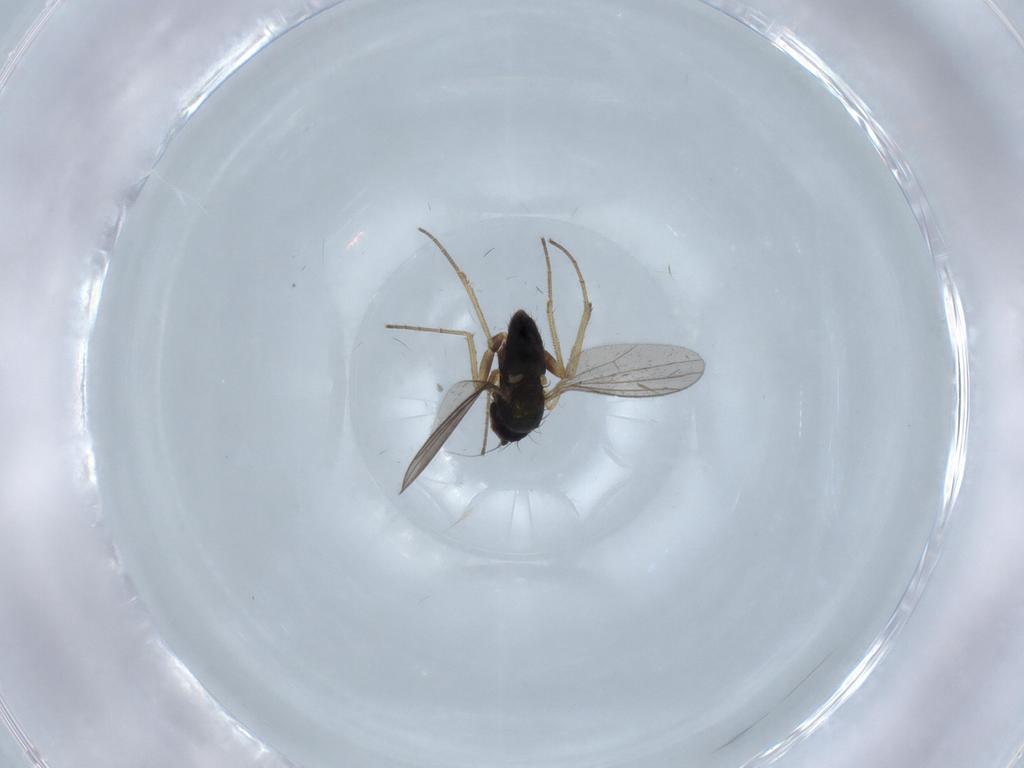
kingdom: Animalia
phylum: Arthropoda
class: Insecta
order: Diptera
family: Dolichopodidae
